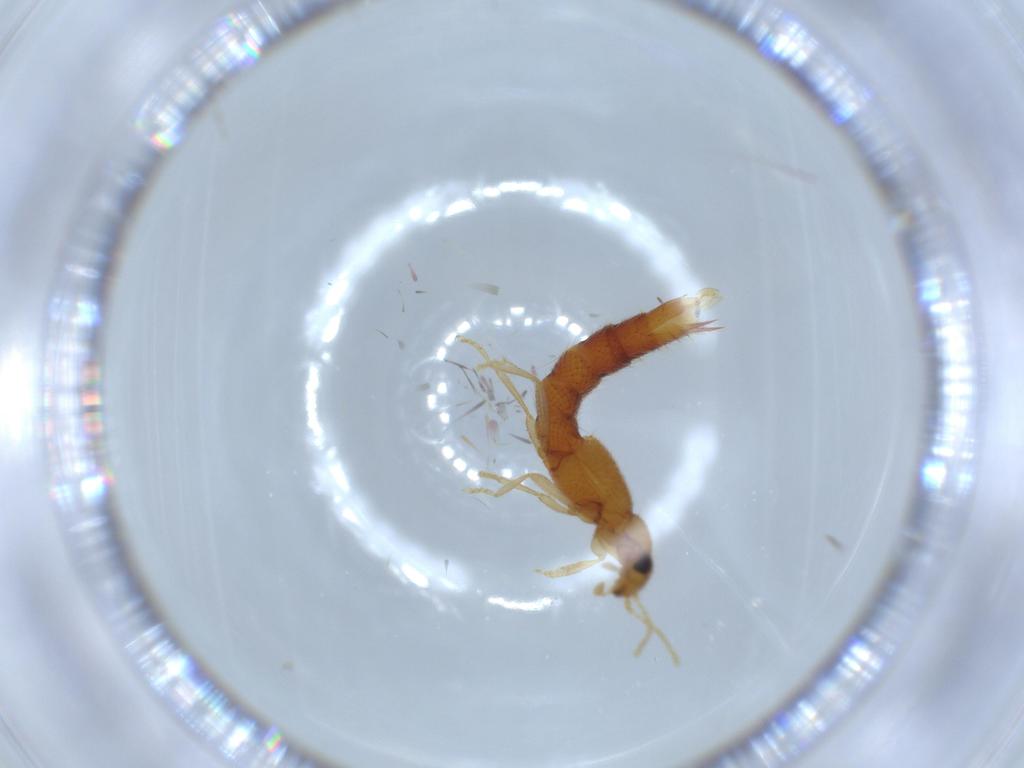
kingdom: Animalia
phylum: Arthropoda
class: Insecta
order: Coleoptera
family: Staphylinidae
